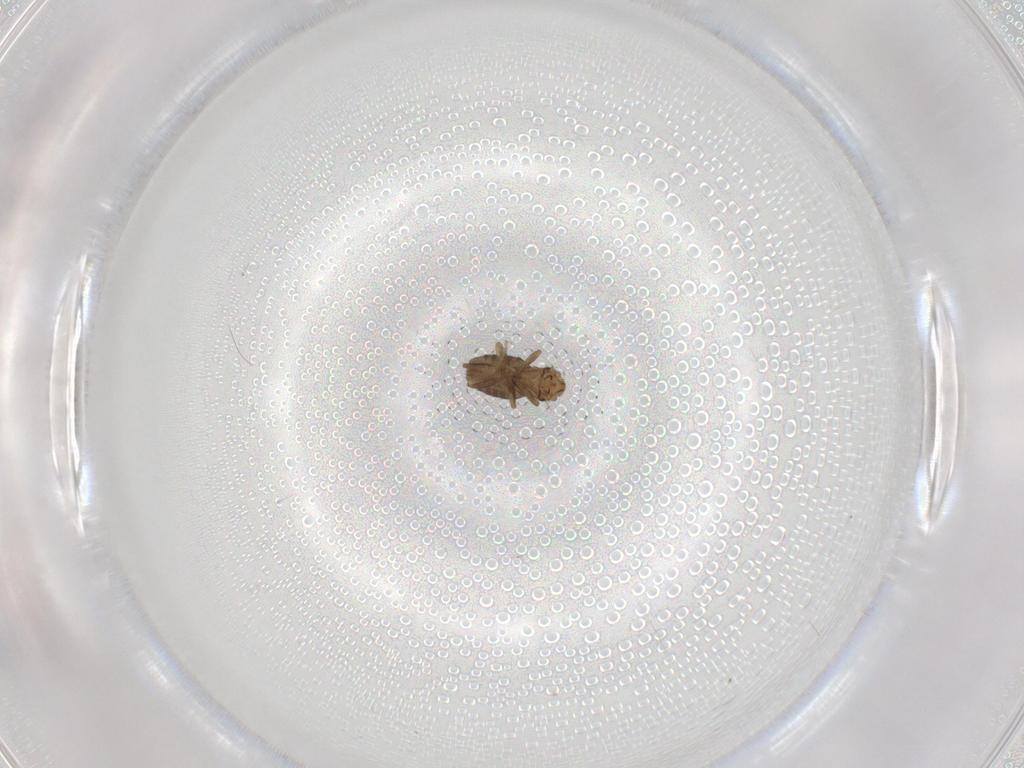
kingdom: Animalia
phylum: Arthropoda
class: Insecta
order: Diptera
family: Phoridae
